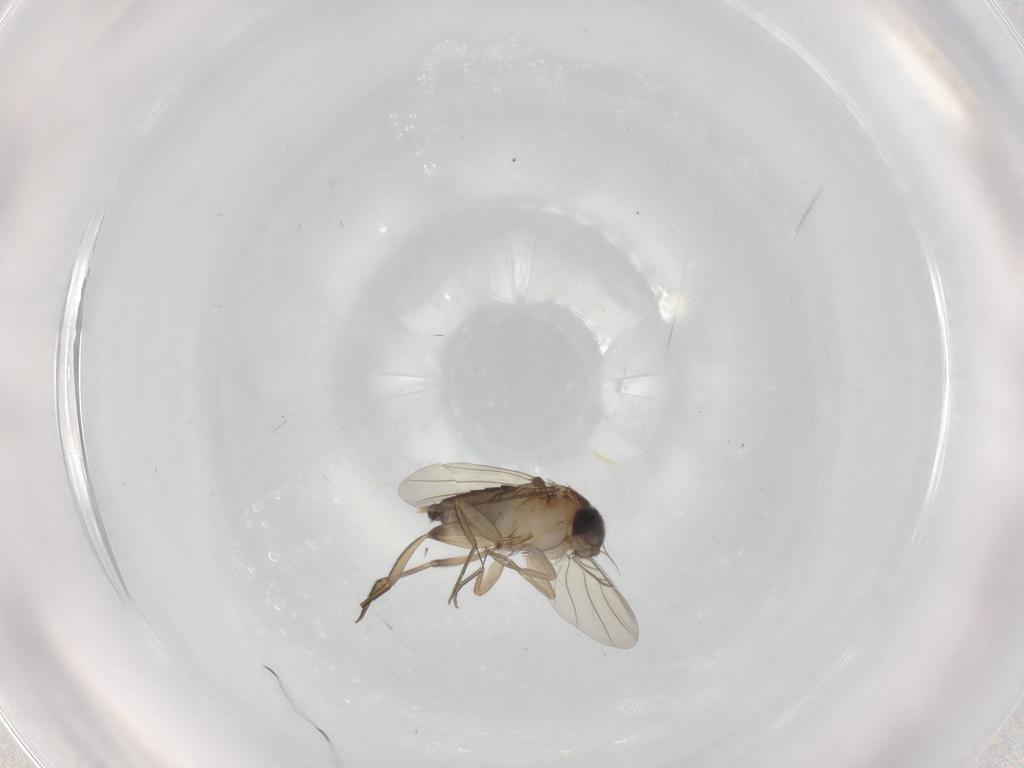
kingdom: Animalia
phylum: Arthropoda
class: Insecta
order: Diptera
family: Phoridae
